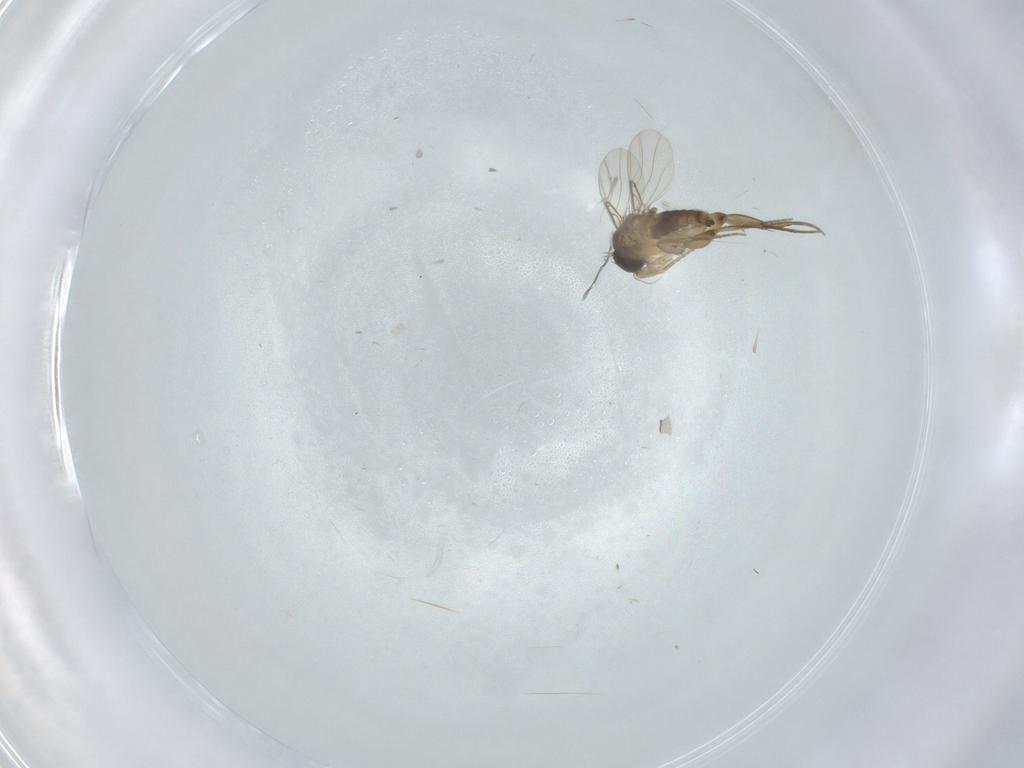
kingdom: Animalia
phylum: Arthropoda
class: Insecta
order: Diptera
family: Phoridae
